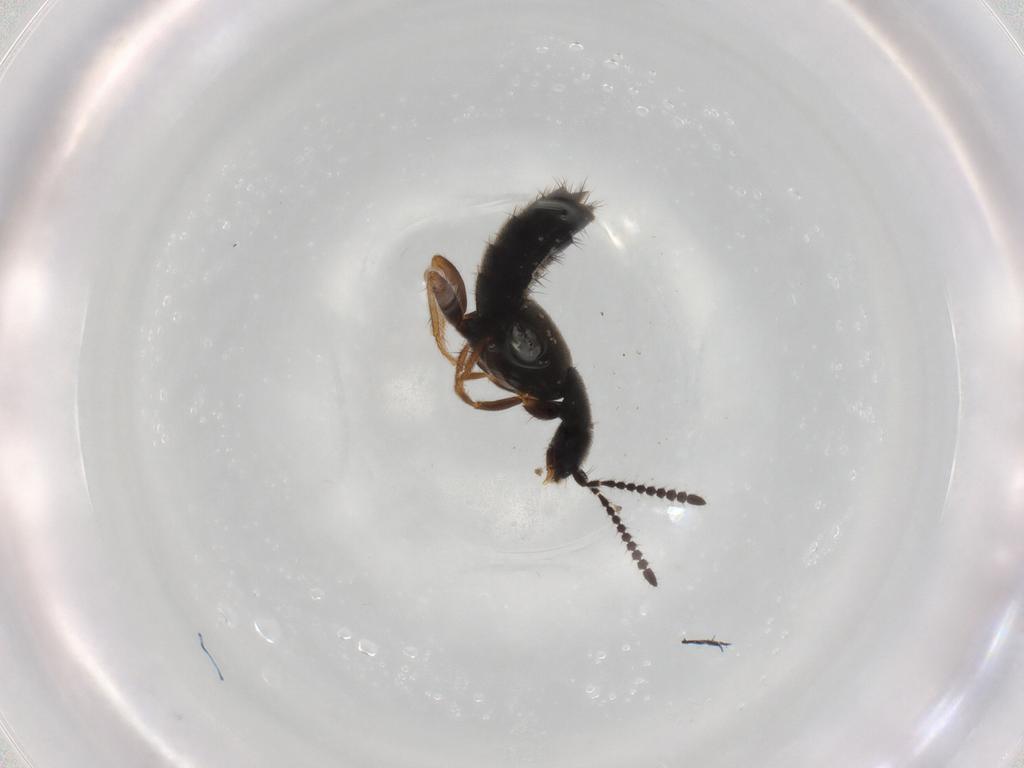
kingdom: Animalia
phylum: Arthropoda
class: Insecta
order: Coleoptera
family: Staphylinidae
